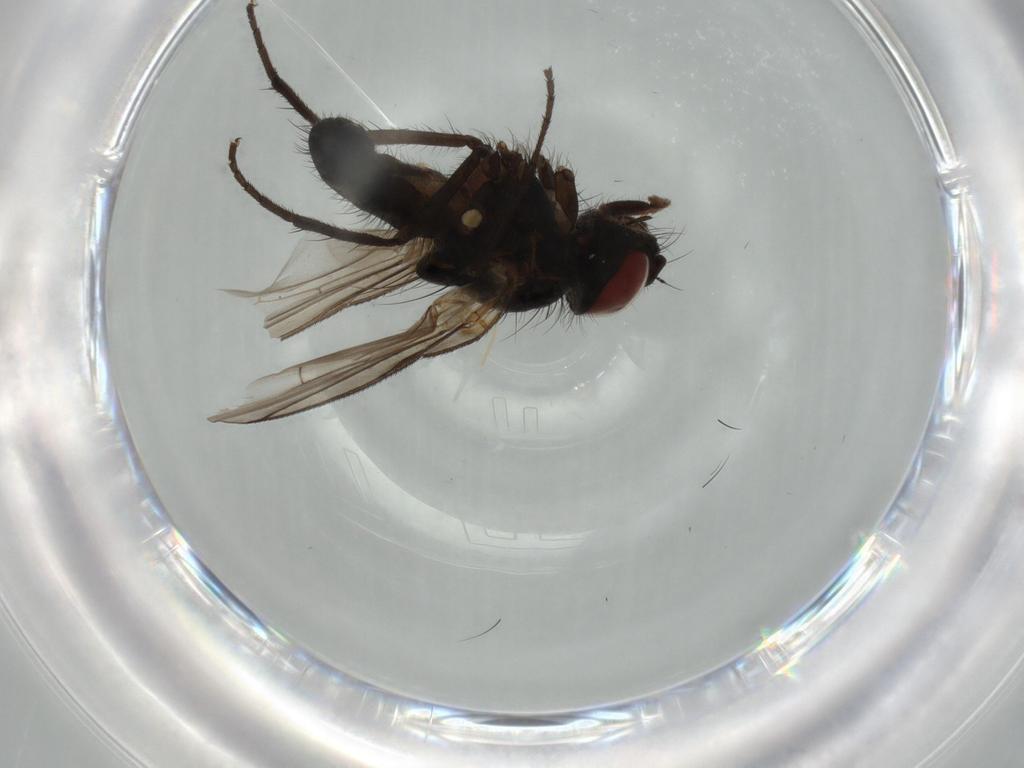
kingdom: Animalia
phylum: Arthropoda
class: Insecta
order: Diptera
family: Anthomyiidae
